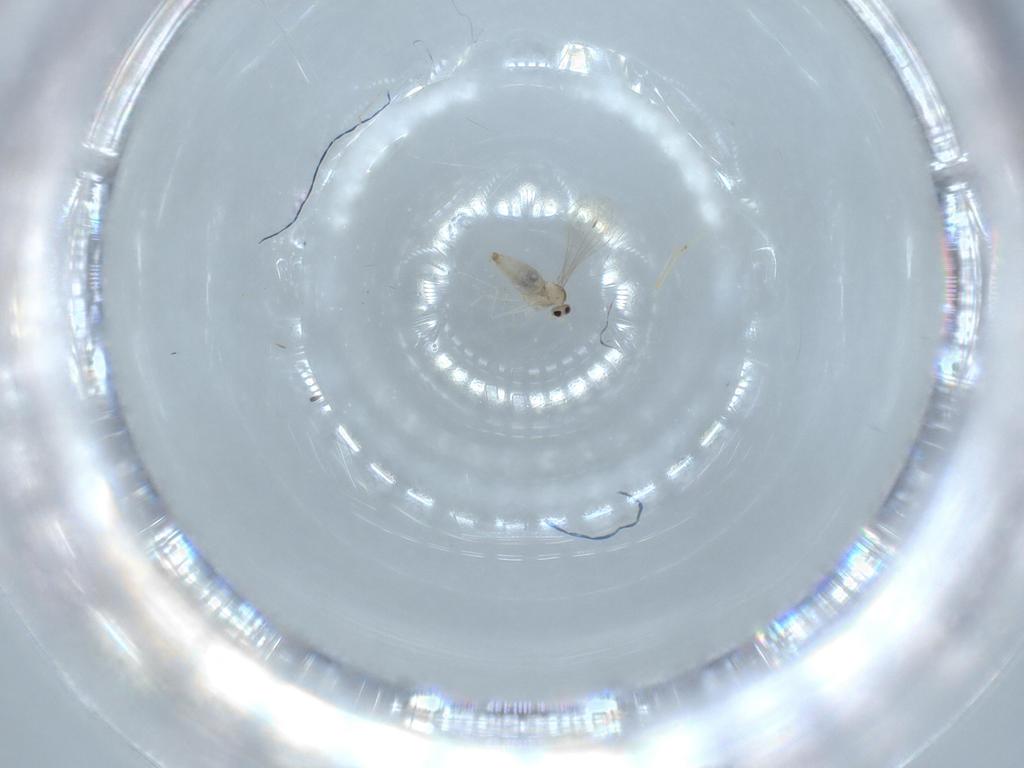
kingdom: Animalia
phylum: Arthropoda
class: Insecta
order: Diptera
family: Cecidomyiidae
